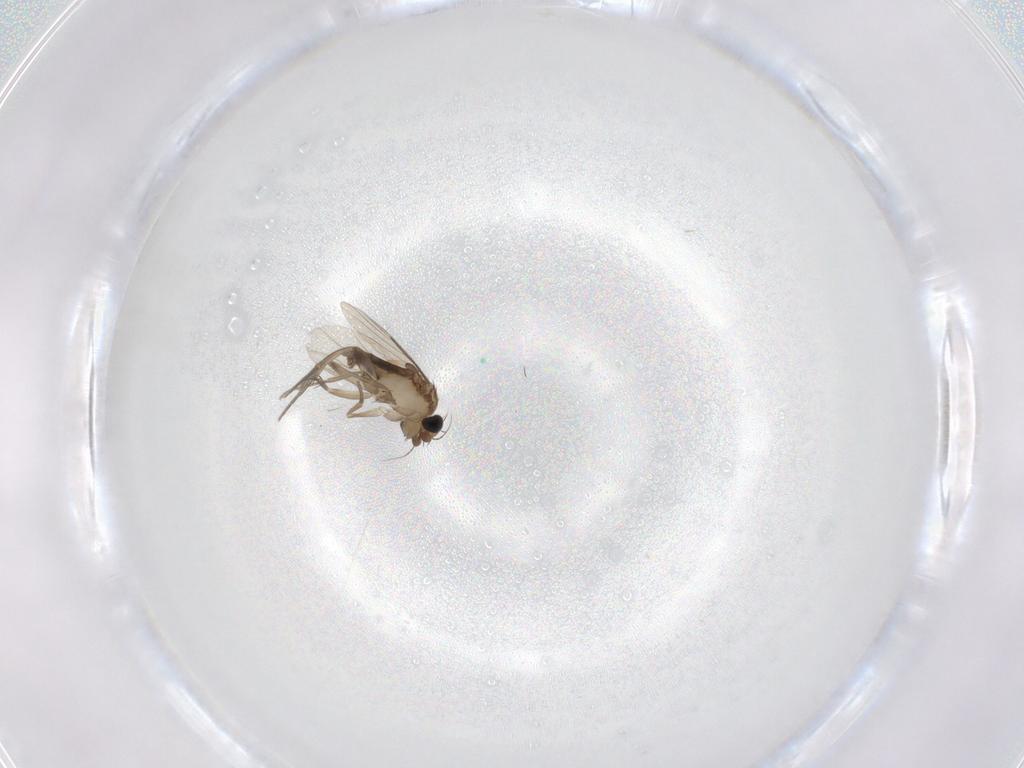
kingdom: Animalia
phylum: Arthropoda
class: Insecta
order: Diptera
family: Phoridae
